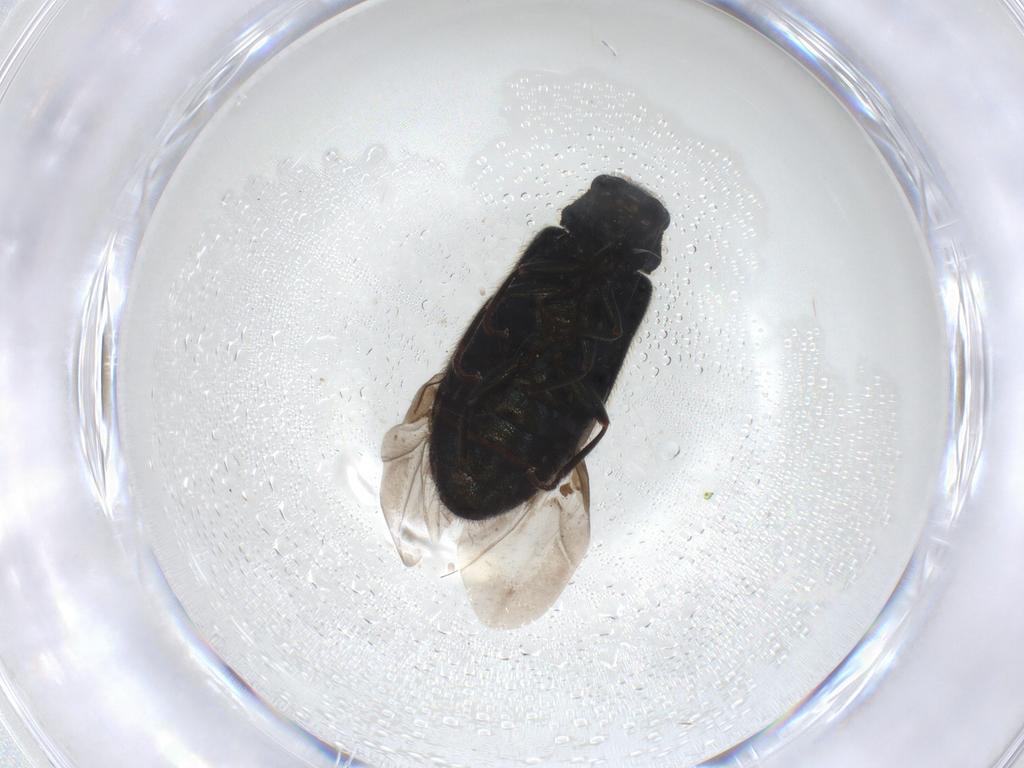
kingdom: Animalia
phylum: Arthropoda
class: Insecta
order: Coleoptera
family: Melyridae
